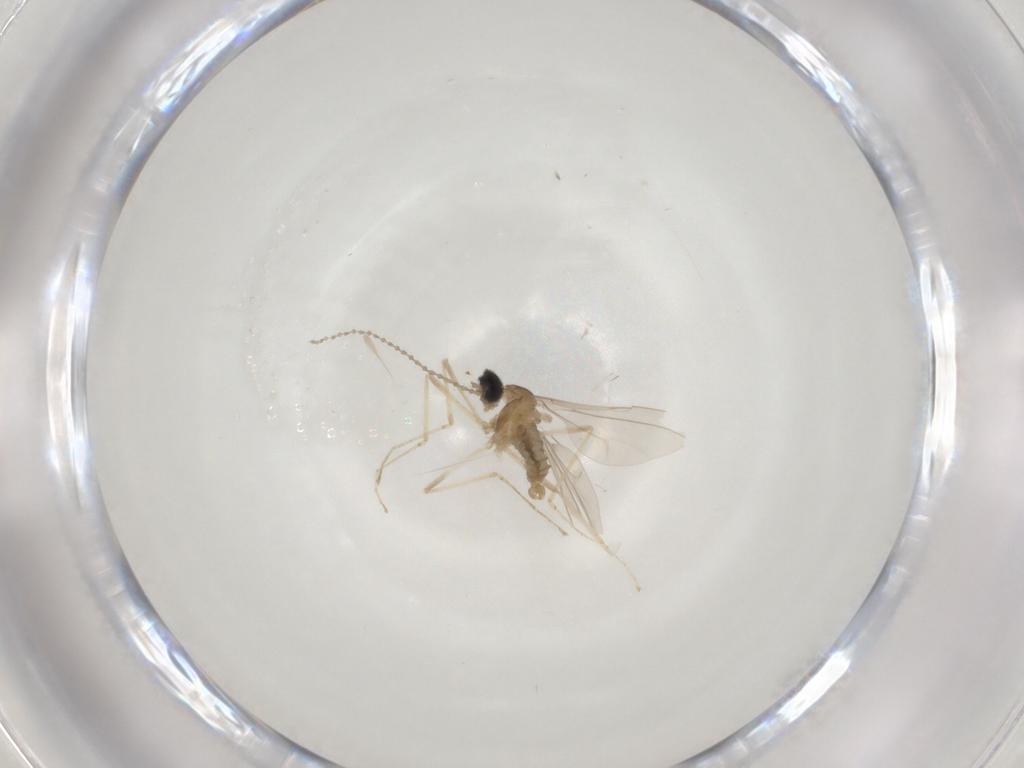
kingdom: Animalia
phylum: Arthropoda
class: Insecta
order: Diptera
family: Cecidomyiidae
